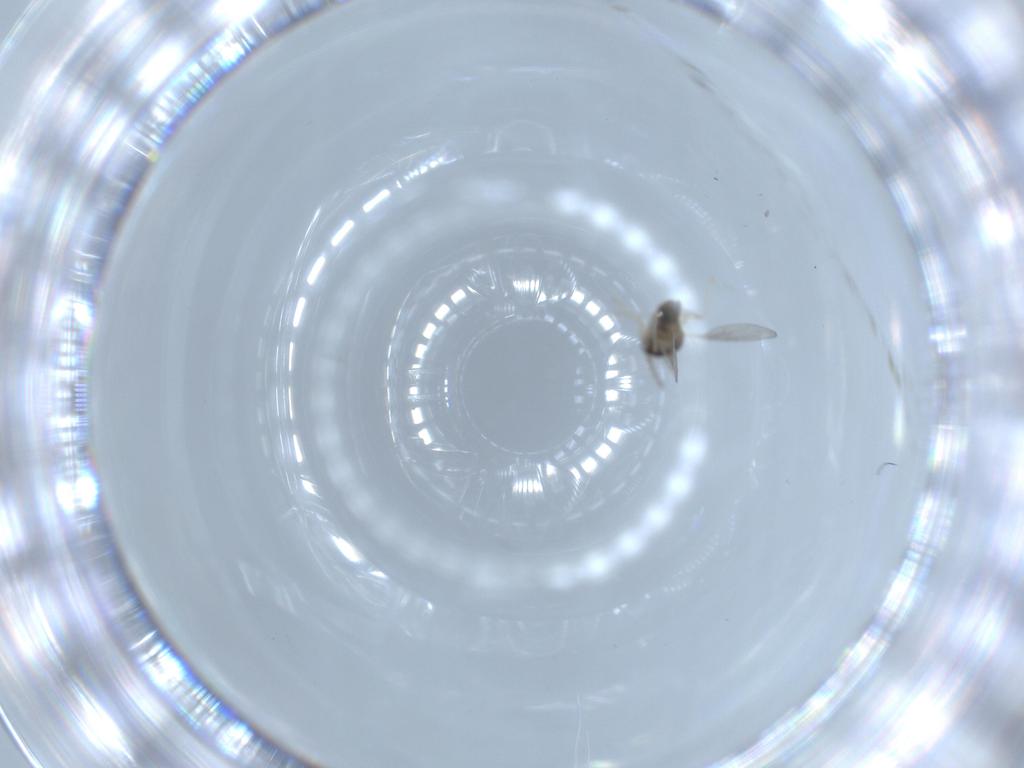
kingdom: Animalia
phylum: Arthropoda
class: Insecta
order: Diptera
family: Cecidomyiidae
